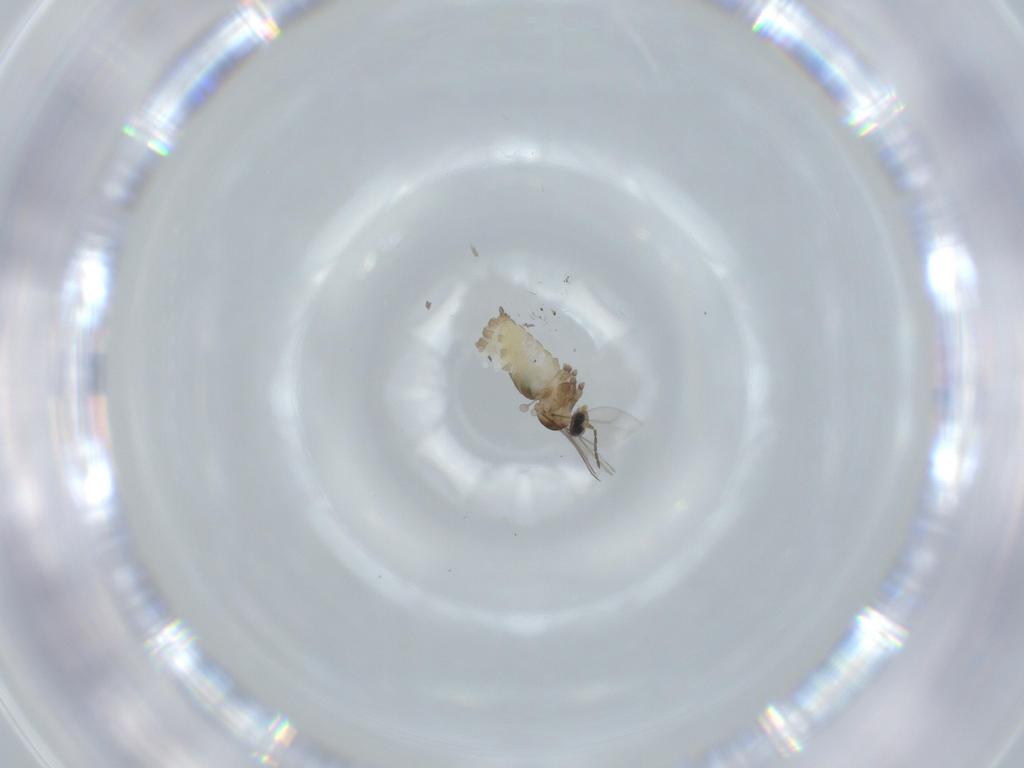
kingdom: Animalia
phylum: Arthropoda
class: Insecta
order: Diptera
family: Cecidomyiidae
